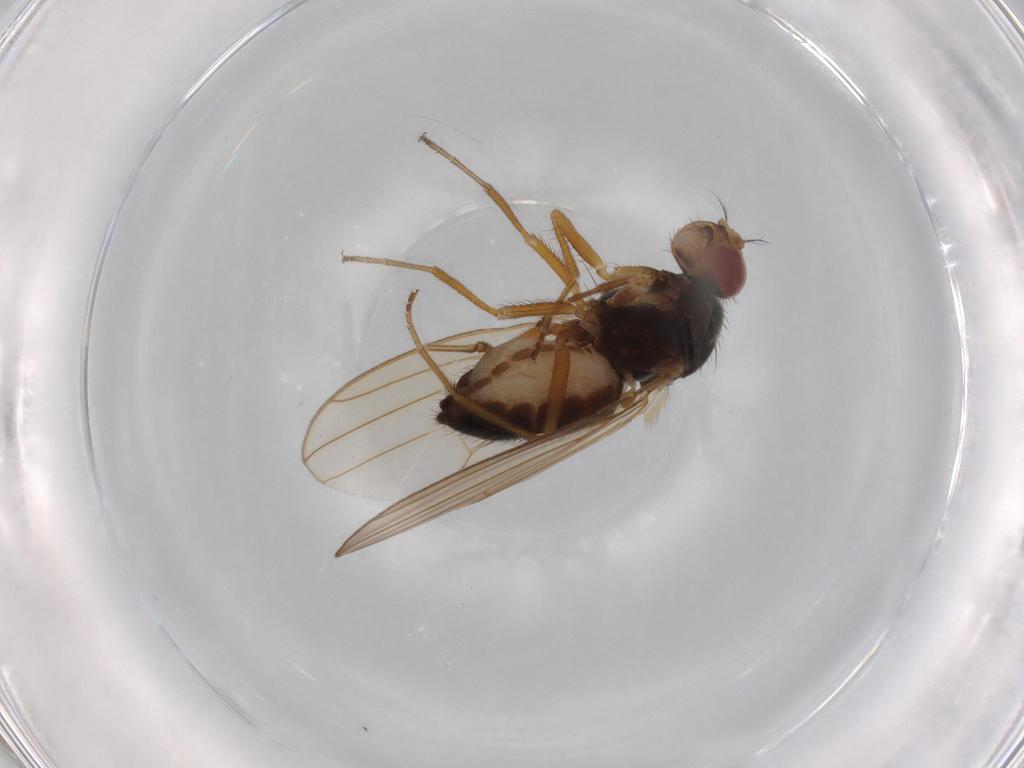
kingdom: Animalia
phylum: Arthropoda
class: Insecta
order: Diptera
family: Drosophilidae
